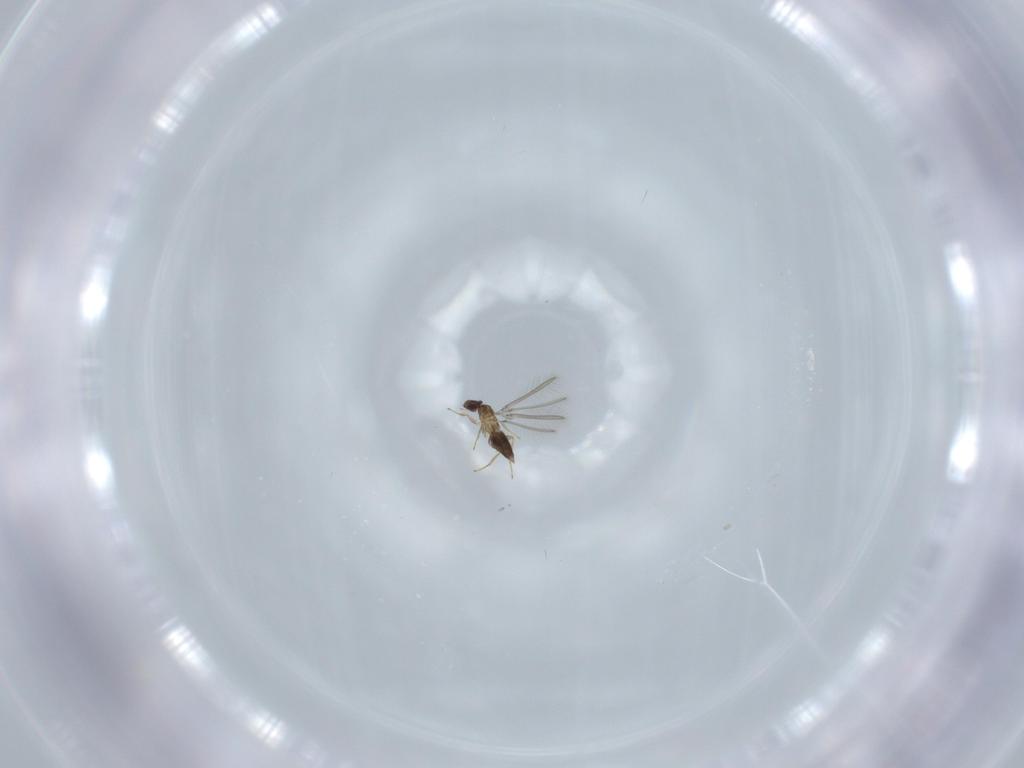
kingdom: Animalia
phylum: Arthropoda
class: Insecta
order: Hymenoptera
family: Mymaridae
